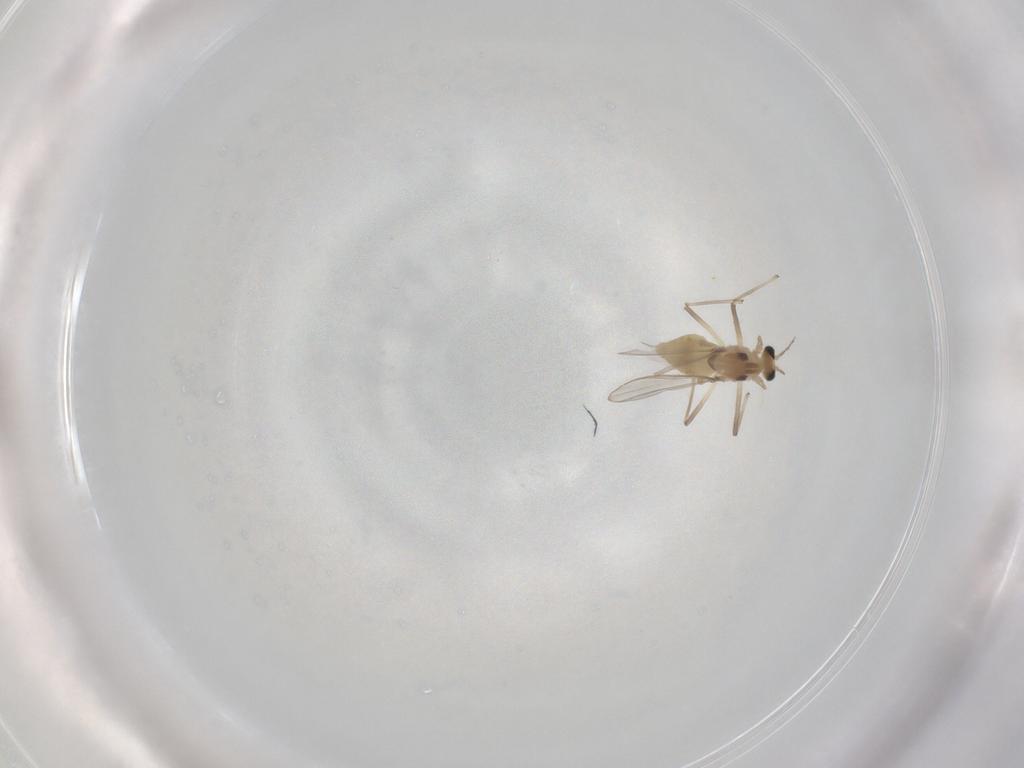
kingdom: Animalia
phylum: Arthropoda
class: Insecta
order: Diptera
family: Chironomidae
